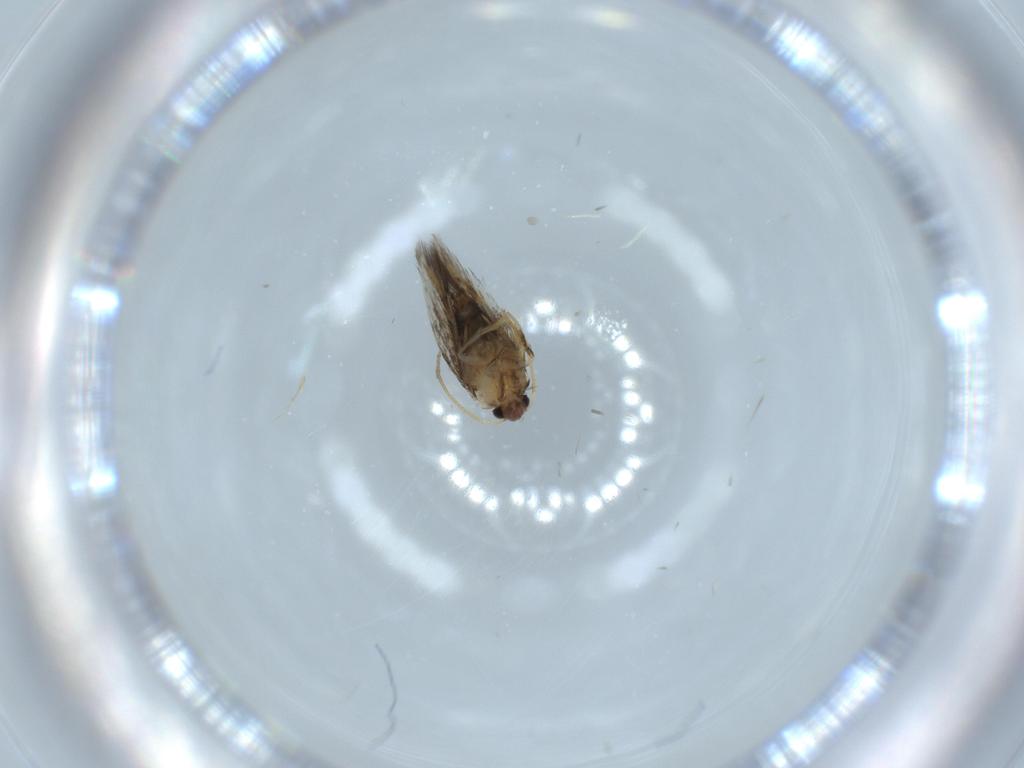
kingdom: Animalia
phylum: Arthropoda
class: Insecta
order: Lepidoptera
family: Nepticulidae
